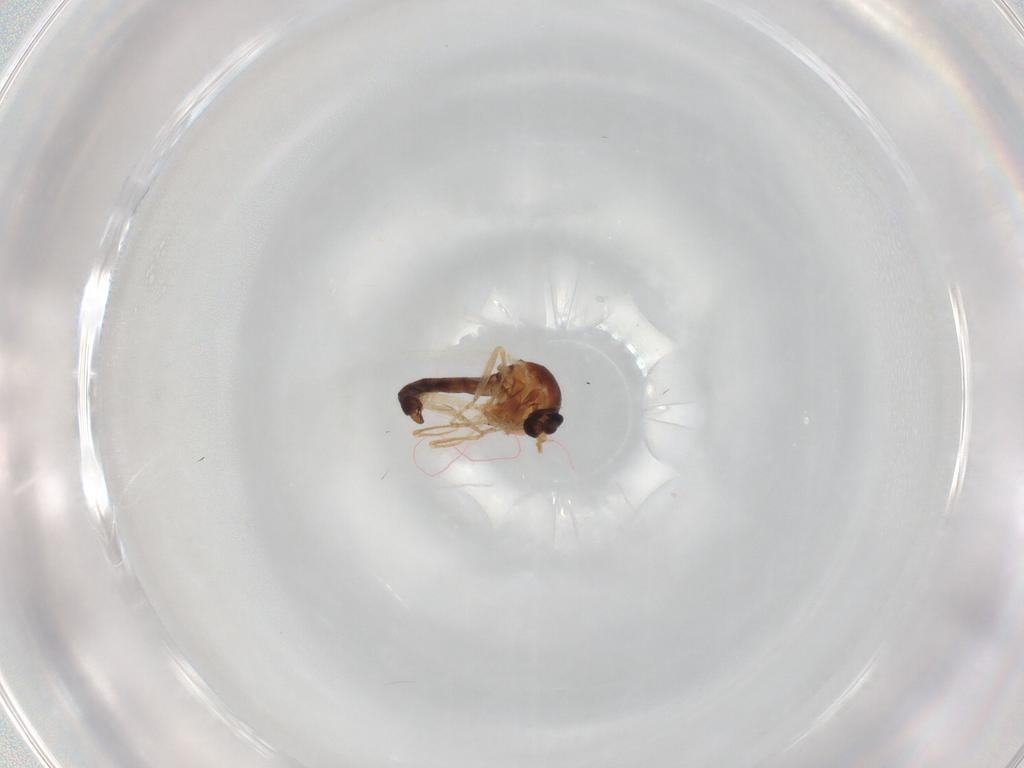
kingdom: Animalia
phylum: Arthropoda
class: Insecta
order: Diptera
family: Ceratopogonidae
